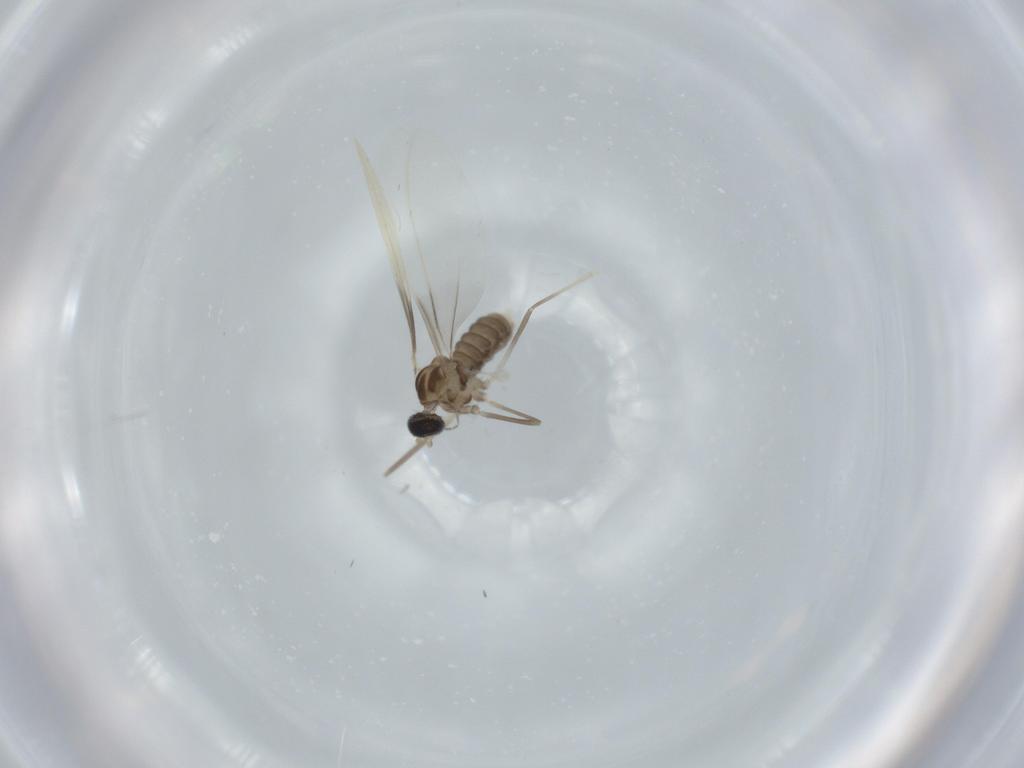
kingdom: Animalia
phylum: Arthropoda
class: Insecta
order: Diptera
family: Cecidomyiidae
